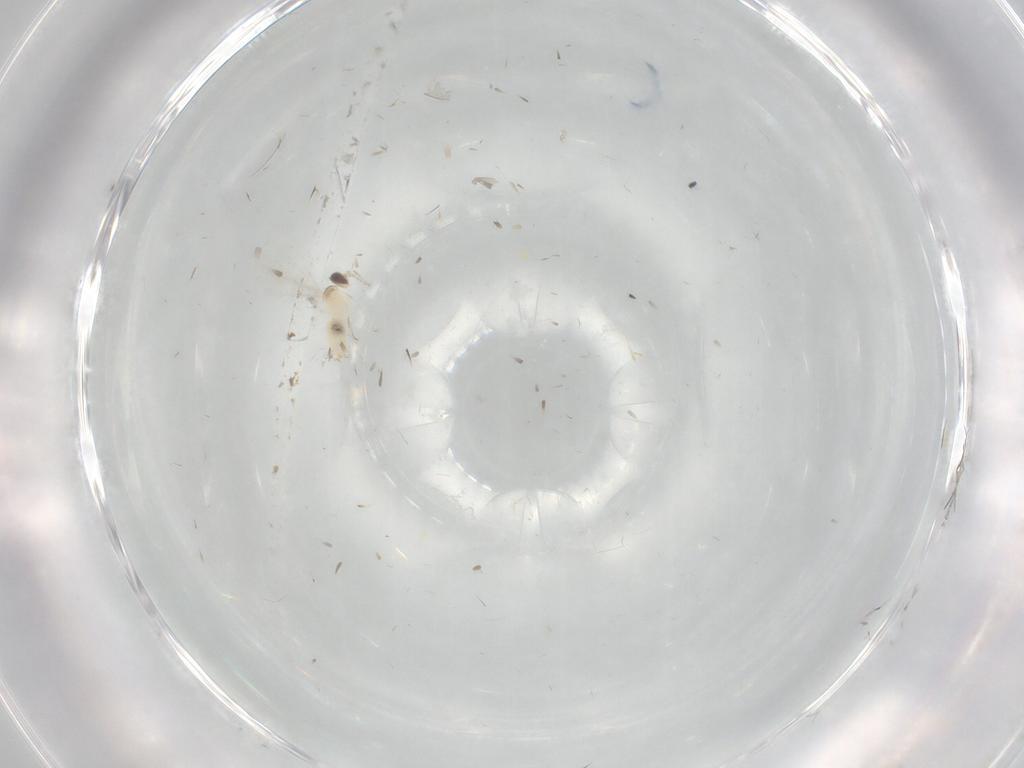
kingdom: Animalia
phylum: Arthropoda
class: Insecta
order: Diptera
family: Cecidomyiidae
